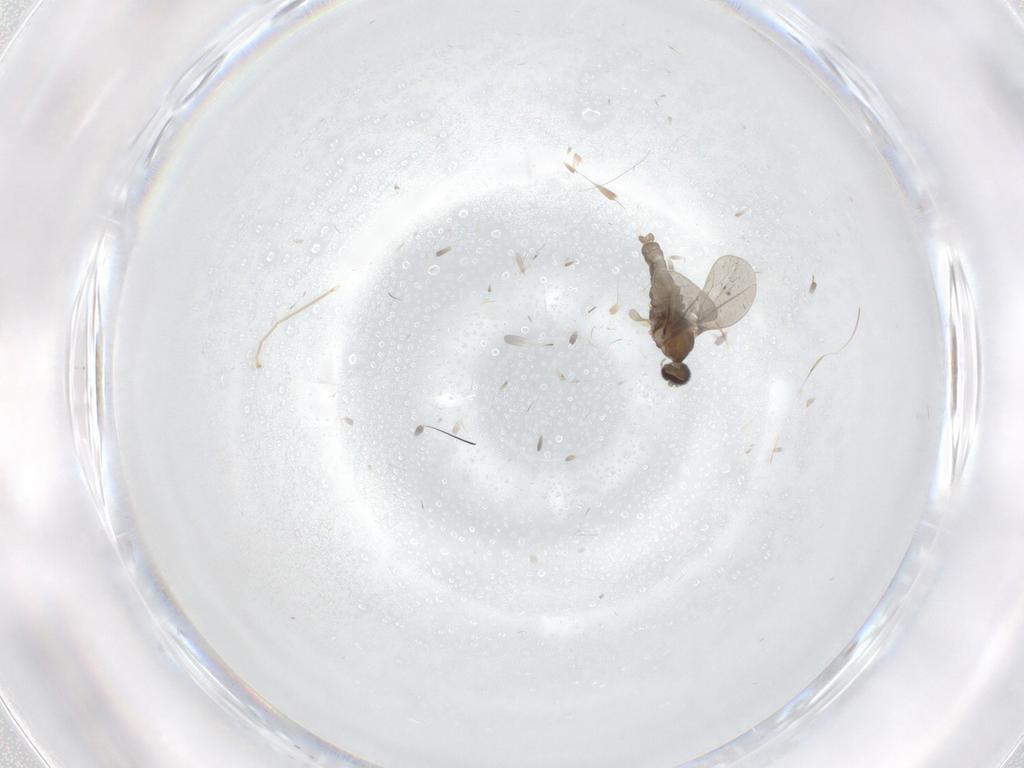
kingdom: Animalia
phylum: Arthropoda
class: Insecta
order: Diptera
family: Cecidomyiidae
